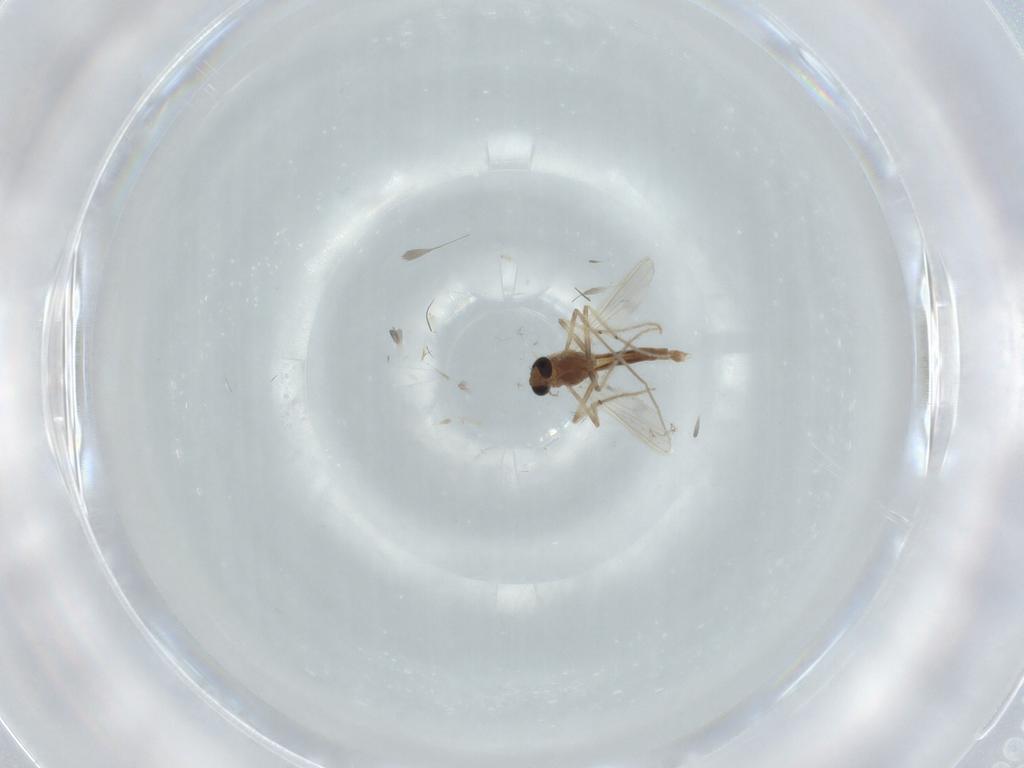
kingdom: Animalia
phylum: Arthropoda
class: Insecta
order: Diptera
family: Chironomidae
